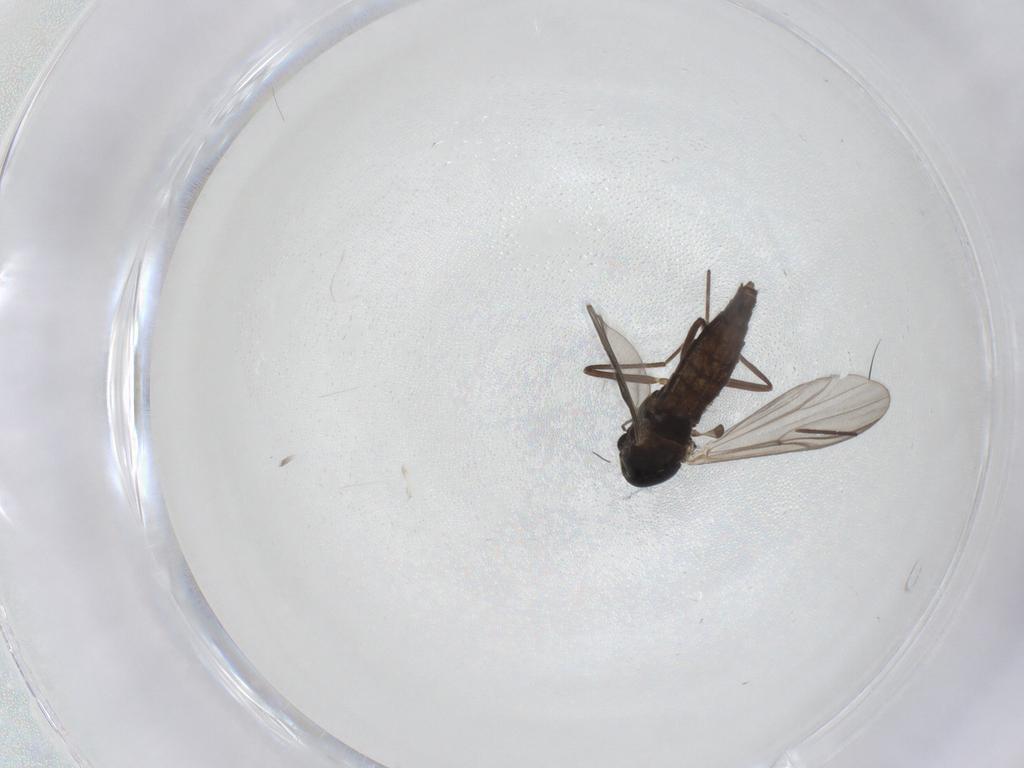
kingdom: Animalia
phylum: Arthropoda
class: Insecta
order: Diptera
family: Chironomidae
